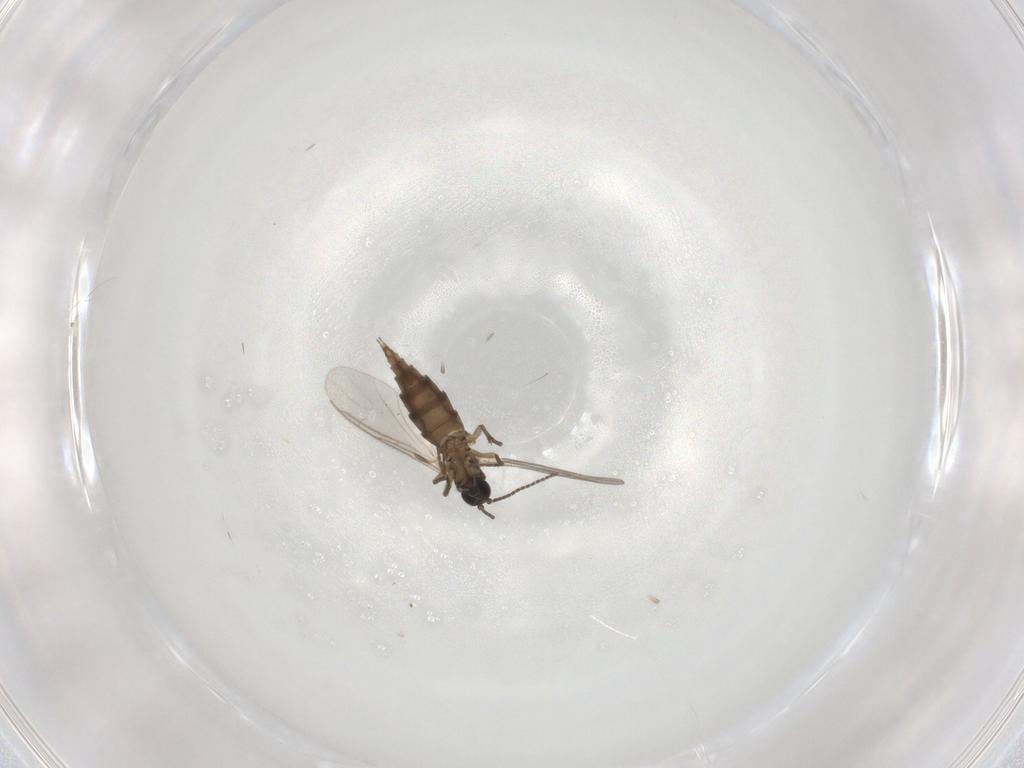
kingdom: Animalia
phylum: Arthropoda
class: Insecta
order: Diptera
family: Sciaridae
